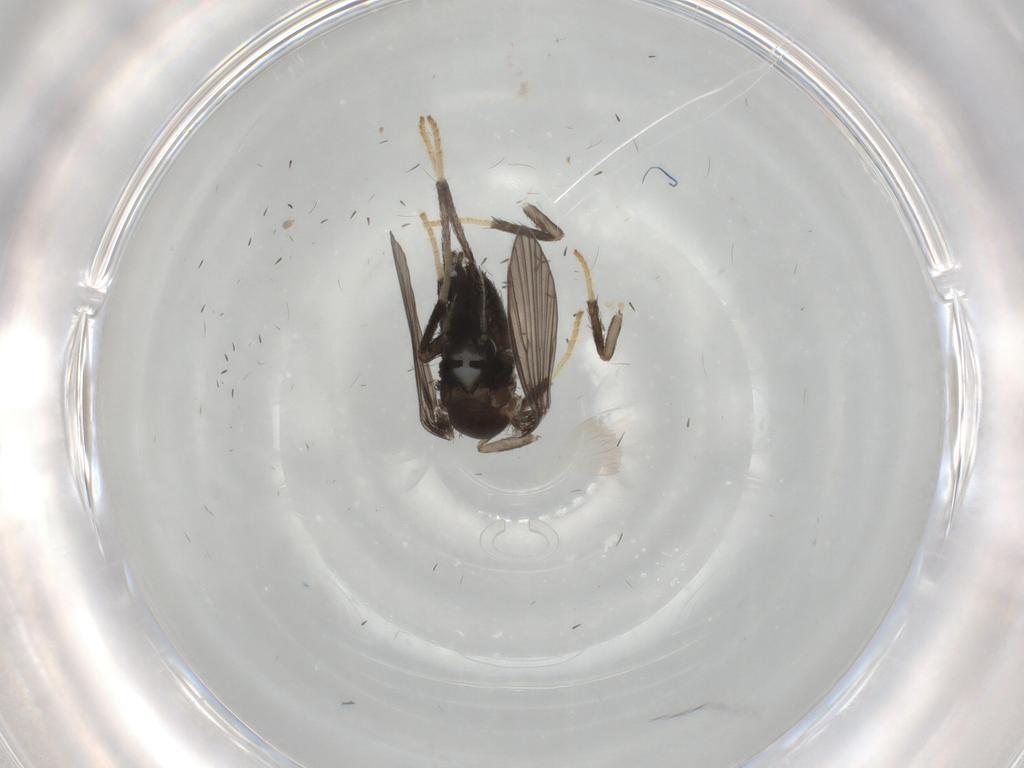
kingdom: Animalia
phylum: Arthropoda
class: Insecta
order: Diptera
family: Psychodidae
